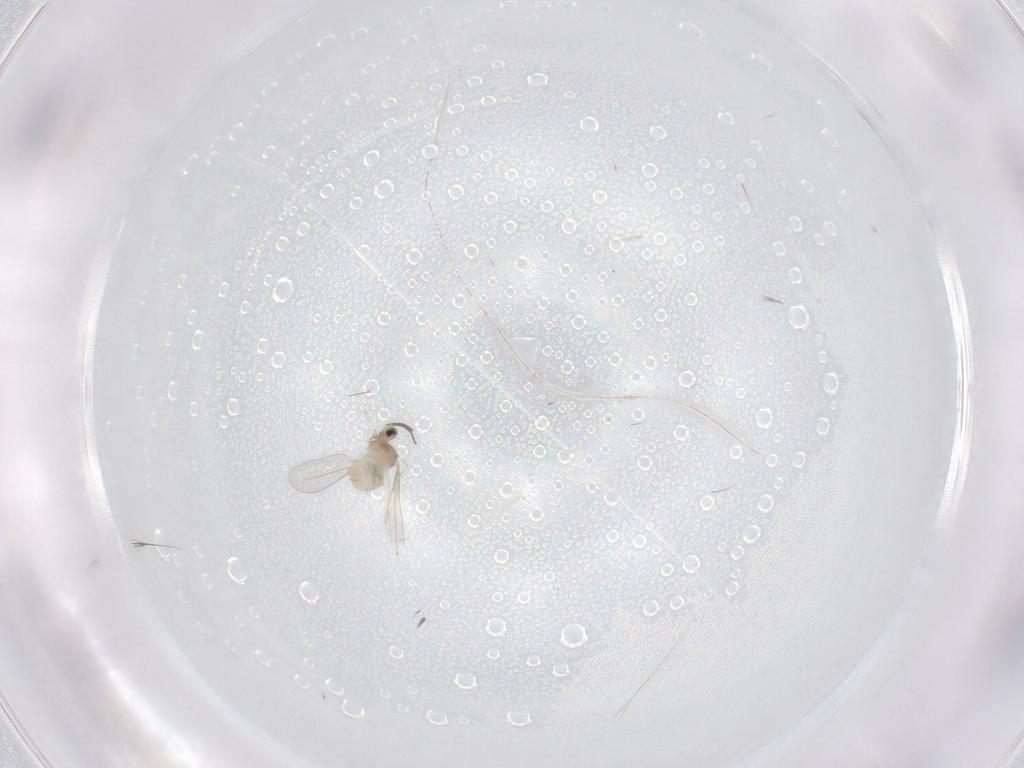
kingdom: Animalia
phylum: Arthropoda
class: Insecta
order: Diptera
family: Cecidomyiidae
